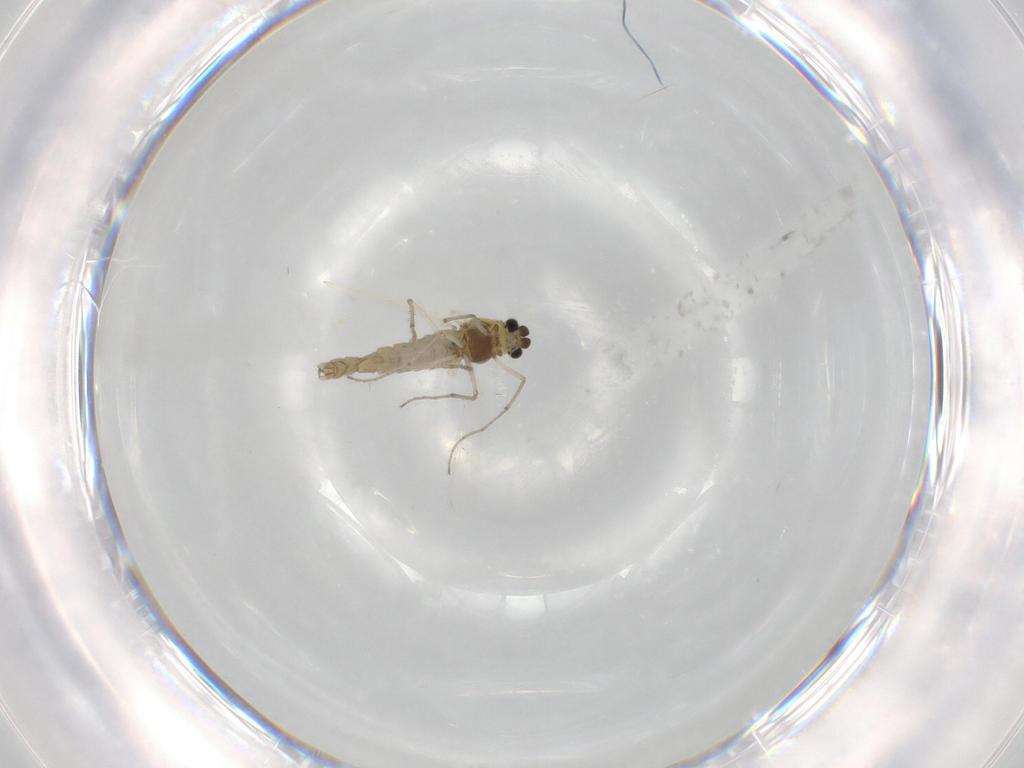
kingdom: Animalia
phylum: Arthropoda
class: Insecta
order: Diptera
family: Chironomidae
